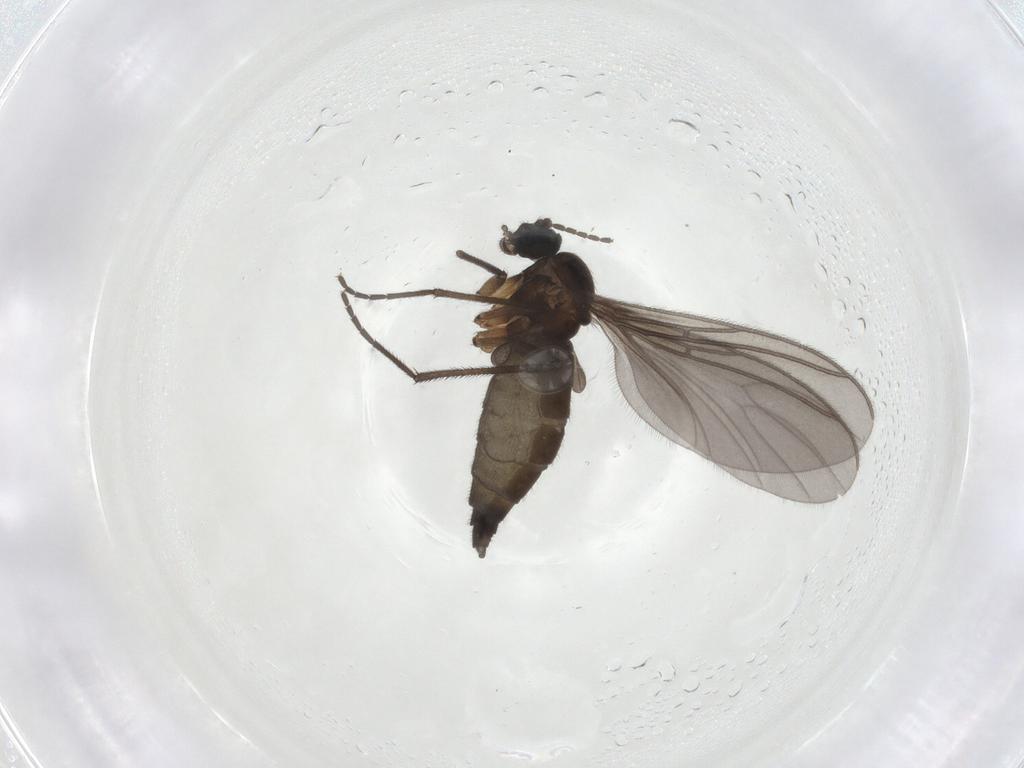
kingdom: Animalia
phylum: Arthropoda
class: Insecta
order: Diptera
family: Sciaridae
